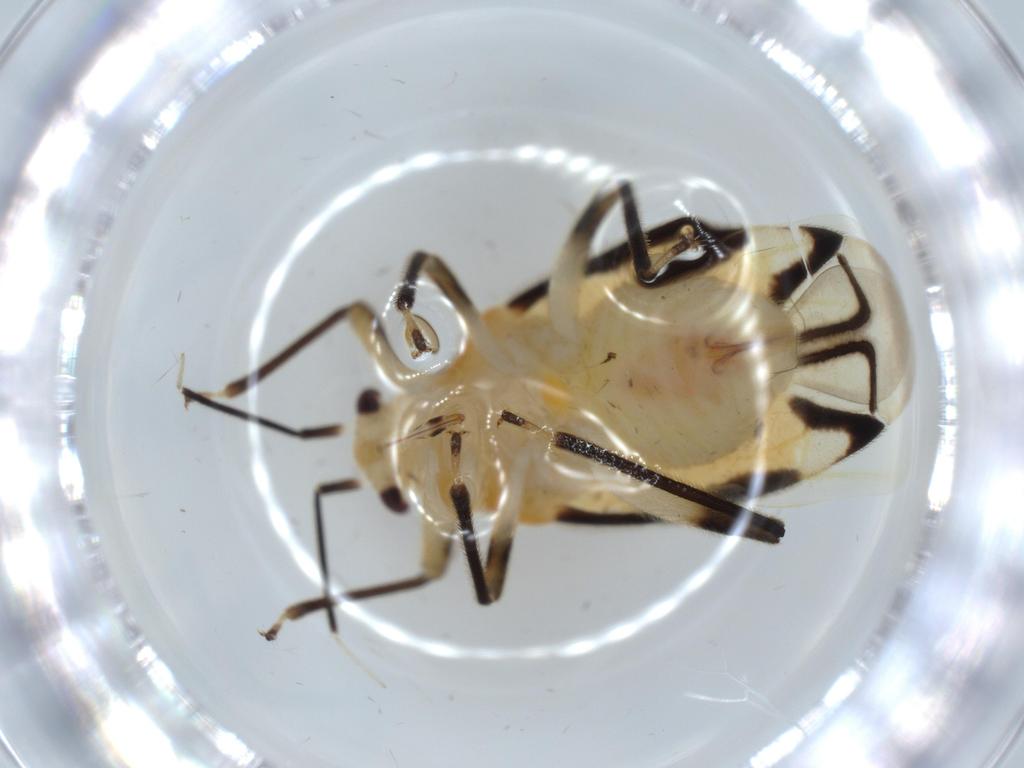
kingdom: Animalia
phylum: Arthropoda
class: Insecta
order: Hemiptera
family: Miridae
